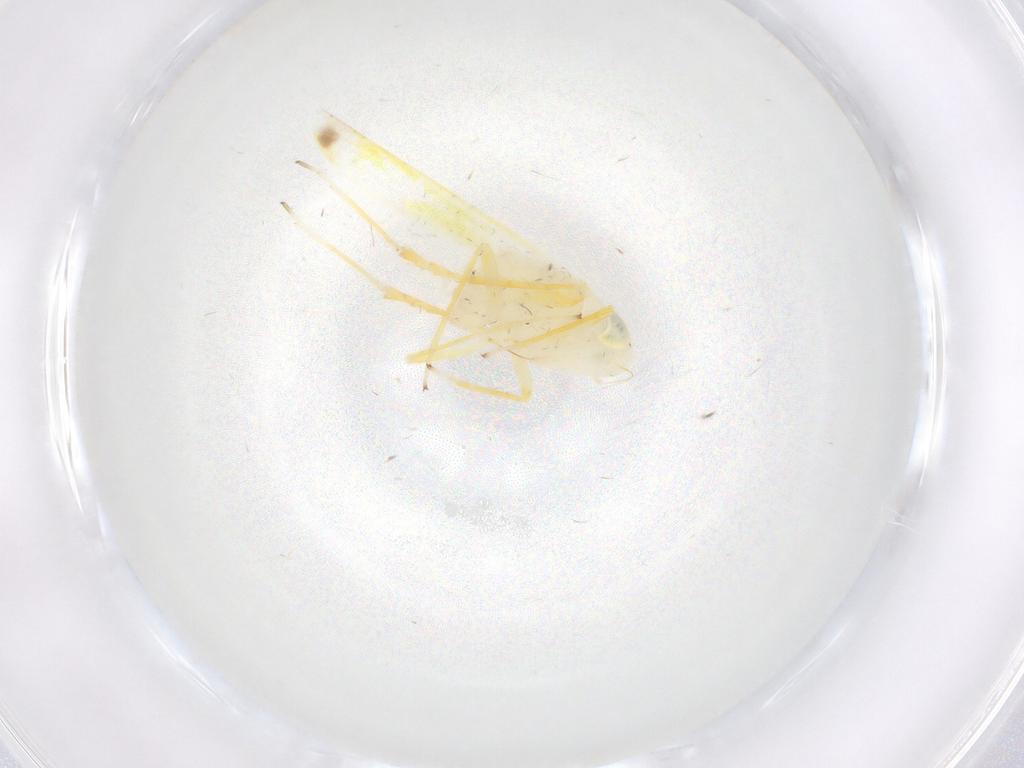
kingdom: Animalia
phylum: Arthropoda
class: Insecta
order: Hemiptera
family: Cicadellidae
